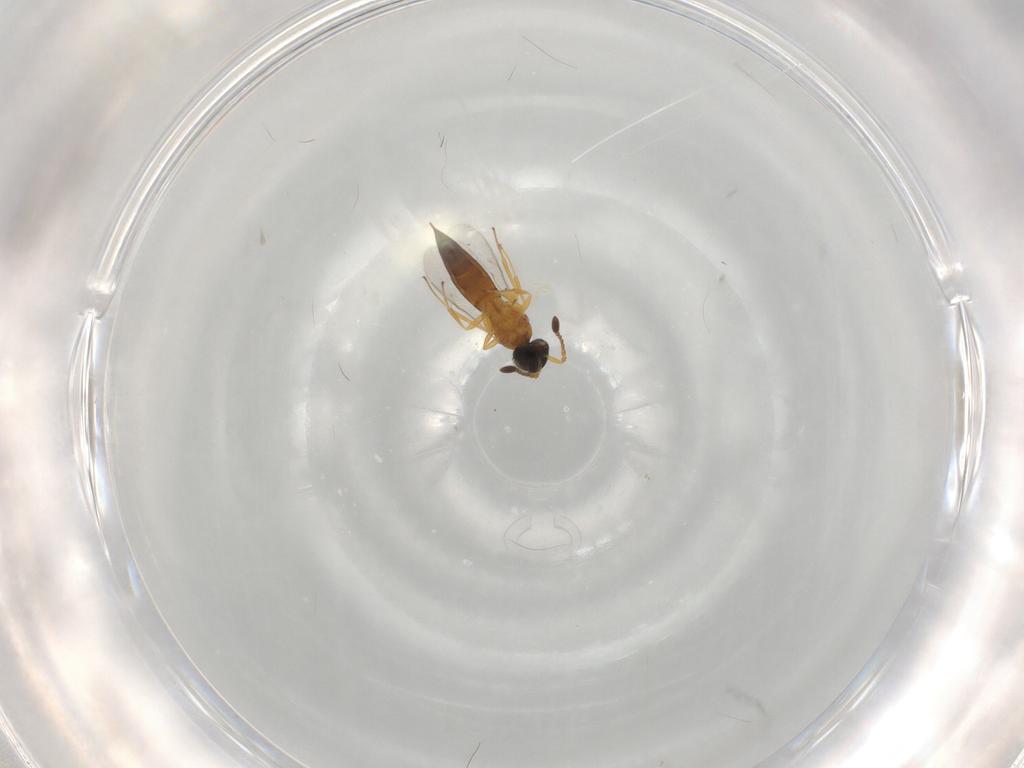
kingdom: Animalia
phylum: Arthropoda
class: Insecta
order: Hymenoptera
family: Scelionidae
